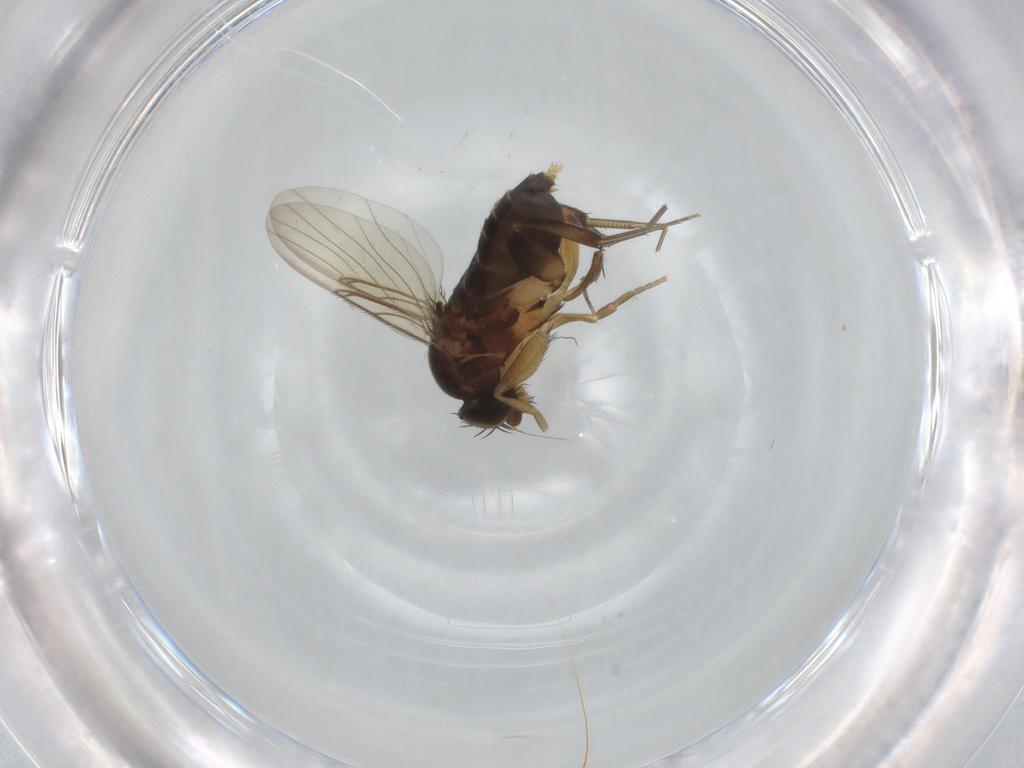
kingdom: Animalia
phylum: Arthropoda
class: Insecta
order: Diptera
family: Phoridae
